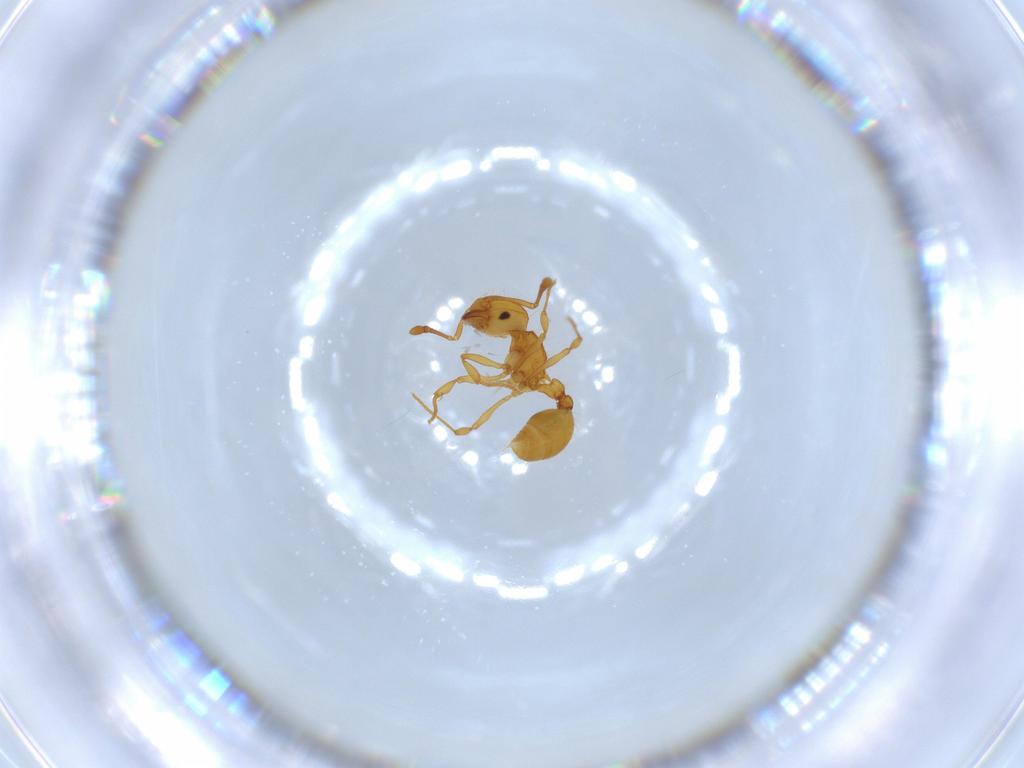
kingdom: Animalia
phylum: Arthropoda
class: Insecta
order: Hymenoptera
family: Formicidae
